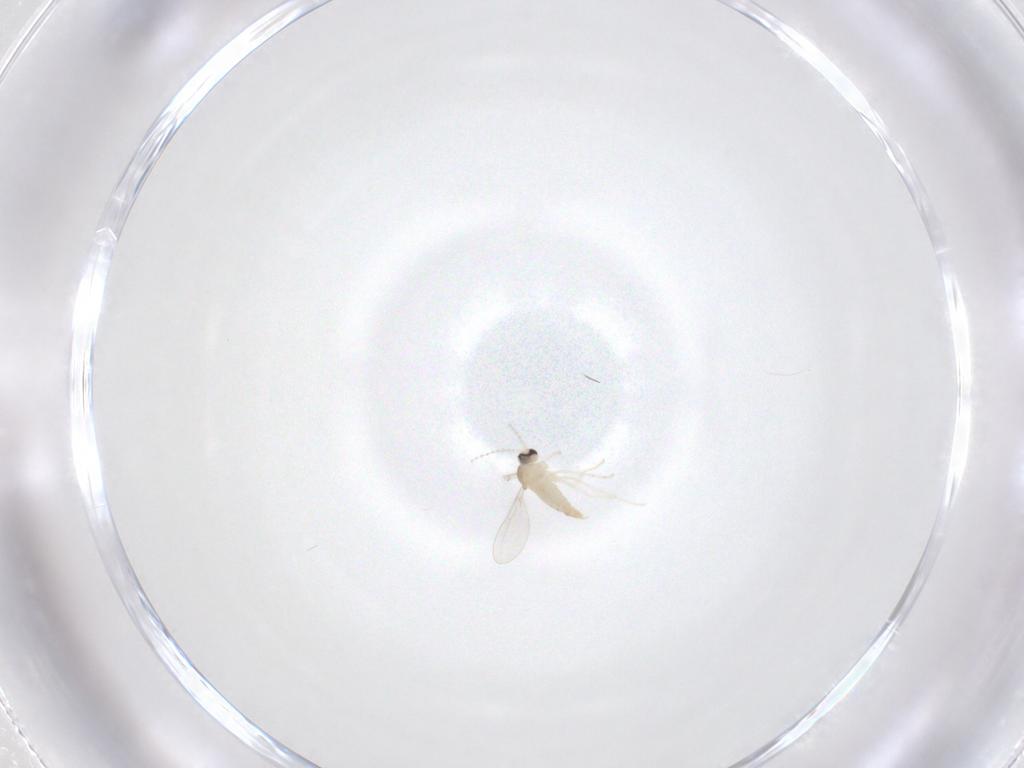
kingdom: Animalia
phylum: Arthropoda
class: Insecta
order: Diptera
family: Cecidomyiidae
